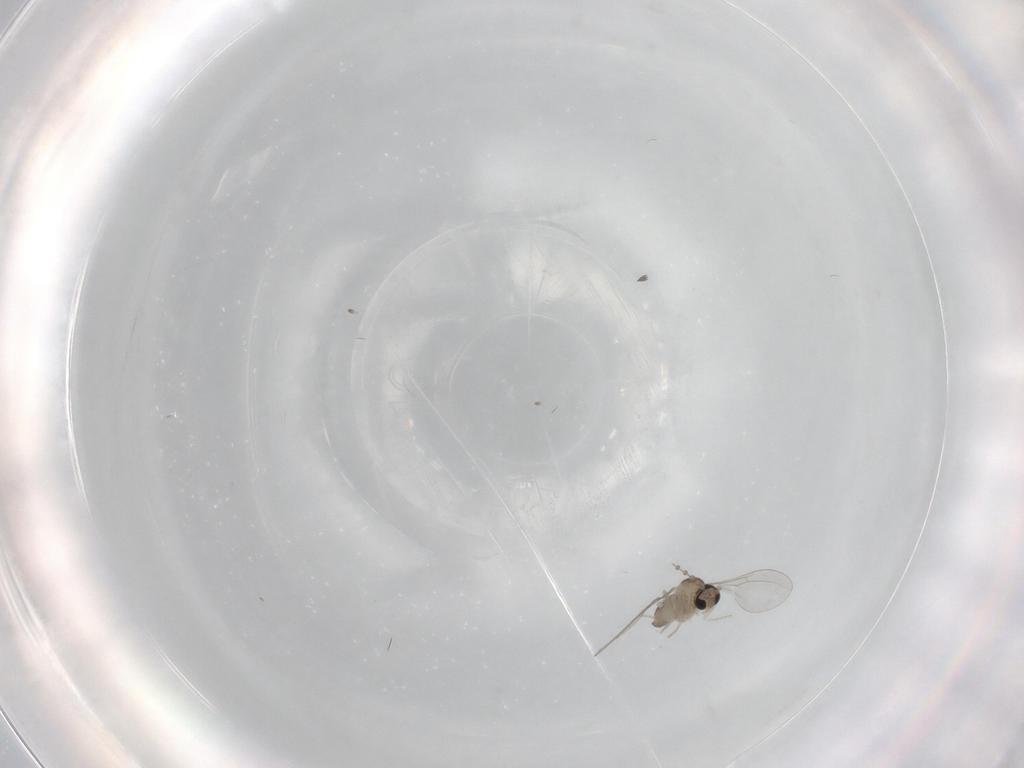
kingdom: Animalia
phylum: Arthropoda
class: Insecta
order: Diptera
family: Cecidomyiidae
